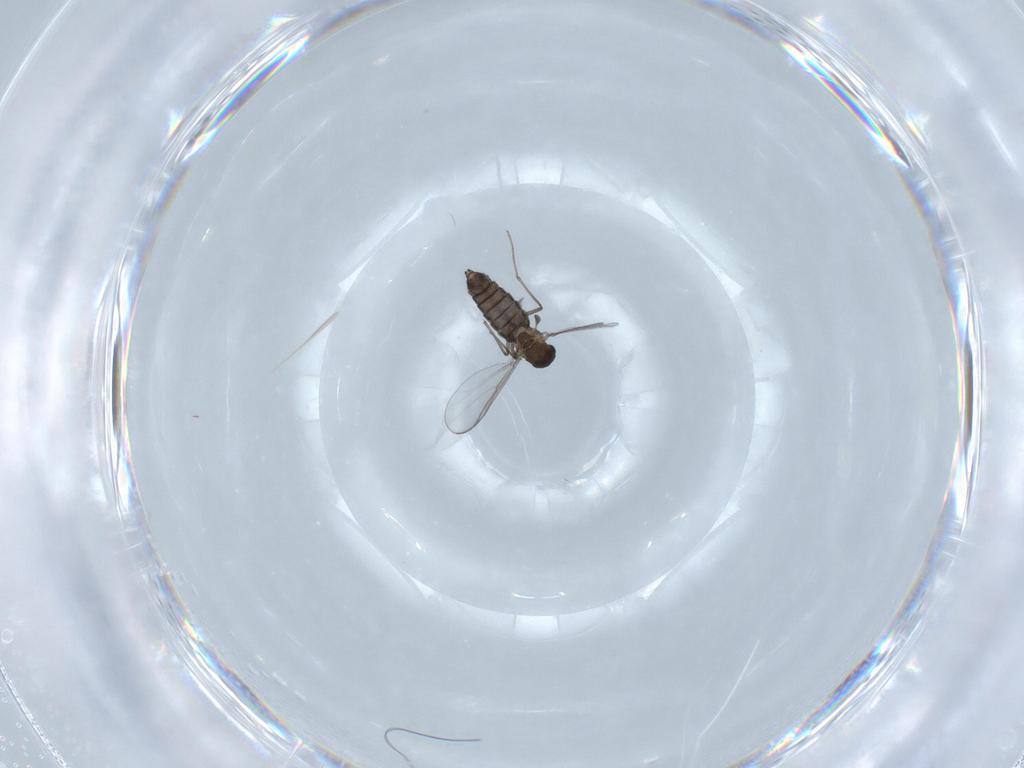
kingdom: Animalia
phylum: Arthropoda
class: Insecta
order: Diptera
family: Chironomidae
